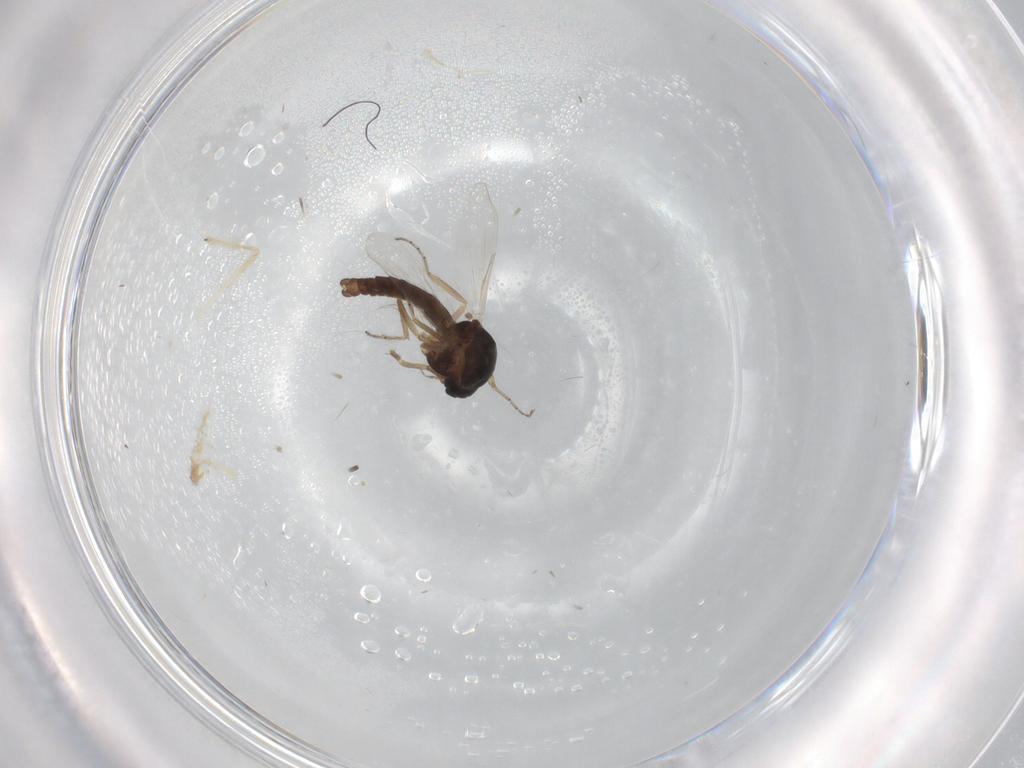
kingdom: Animalia
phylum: Arthropoda
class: Insecta
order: Diptera
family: Ceratopogonidae
